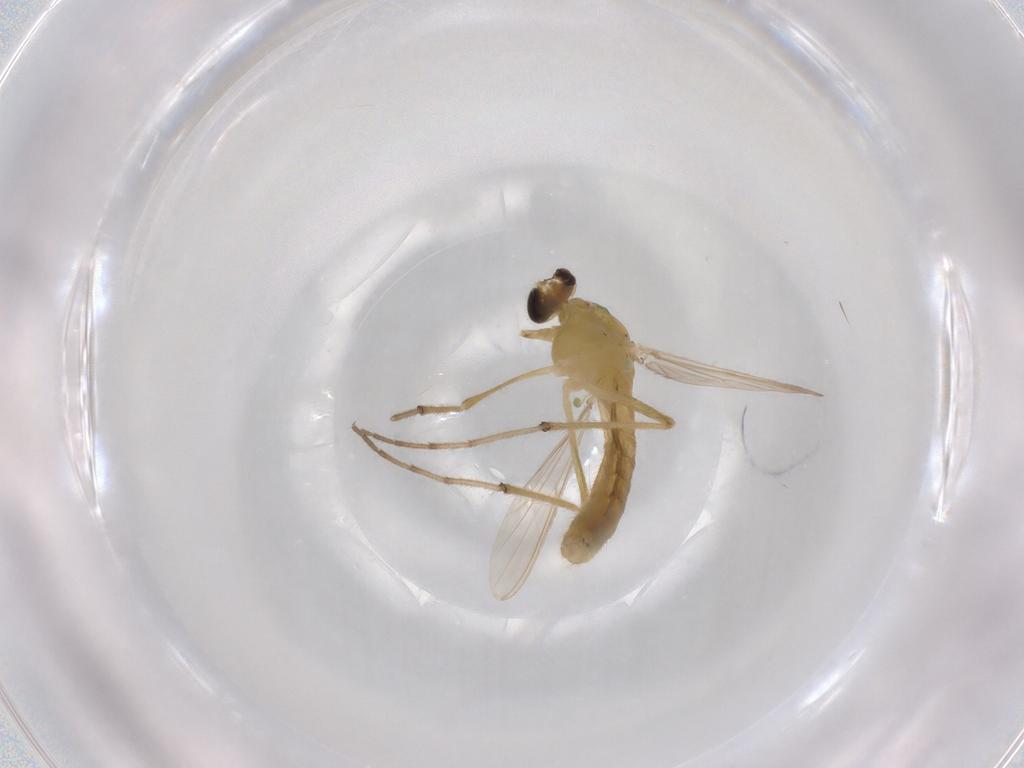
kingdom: Animalia
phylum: Arthropoda
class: Insecta
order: Diptera
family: Chironomidae
